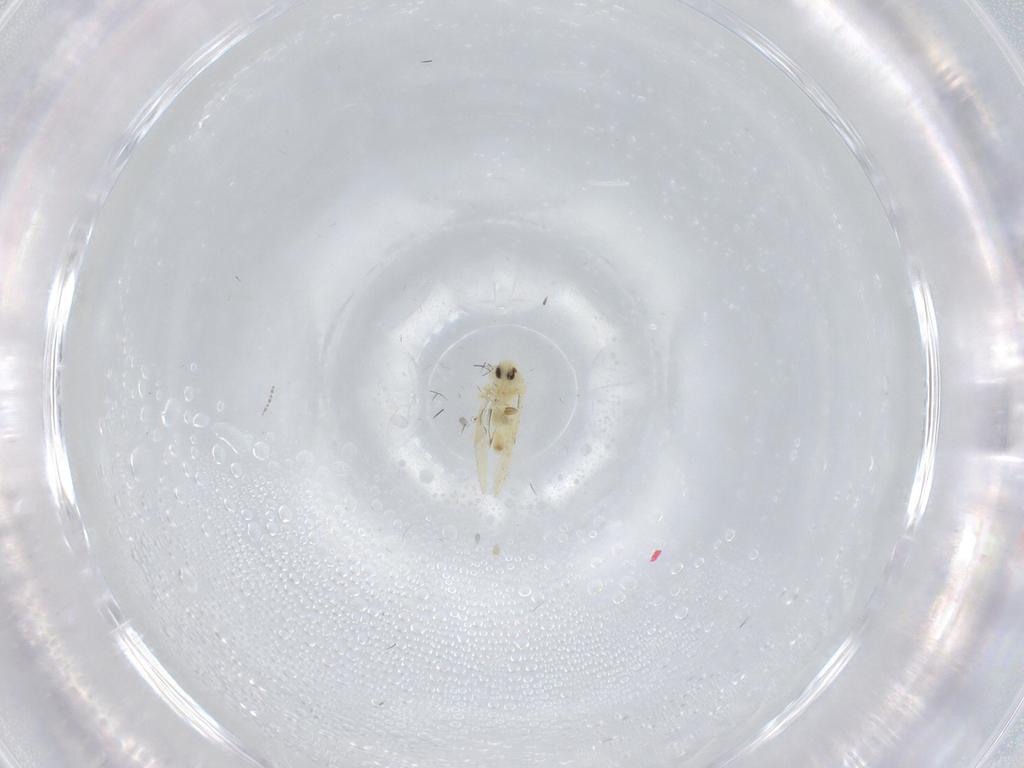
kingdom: Animalia
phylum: Arthropoda
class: Insecta
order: Hemiptera
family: Aleyrodidae
